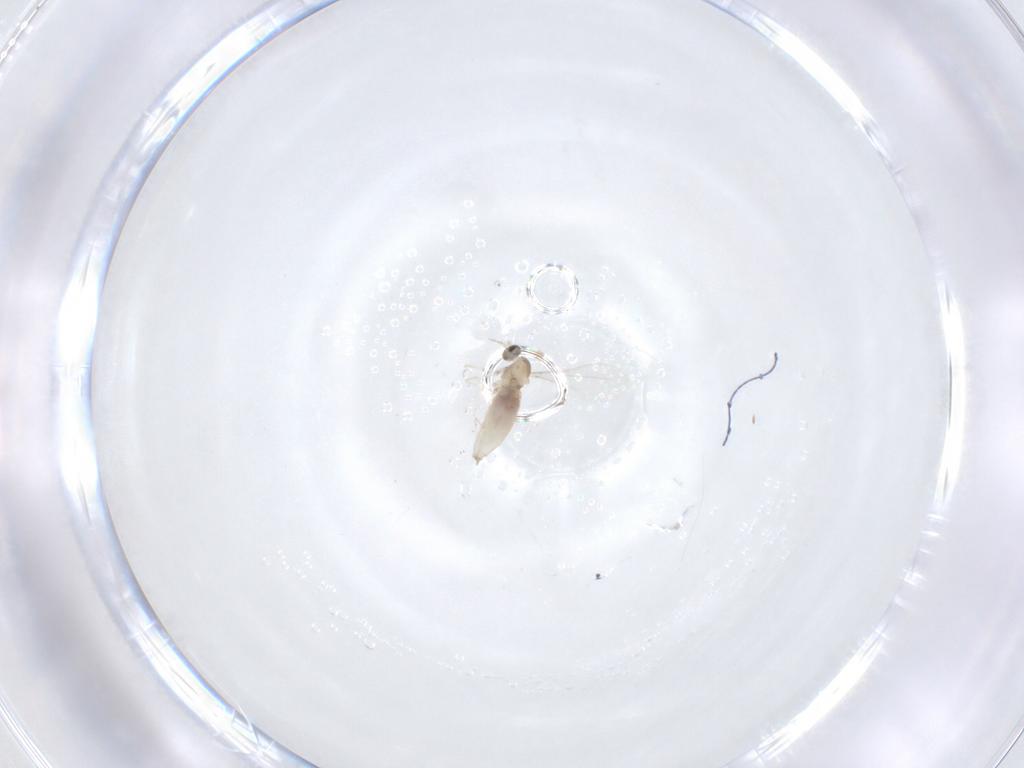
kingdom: Animalia
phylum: Arthropoda
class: Insecta
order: Diptera
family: Cecidomyiidae
